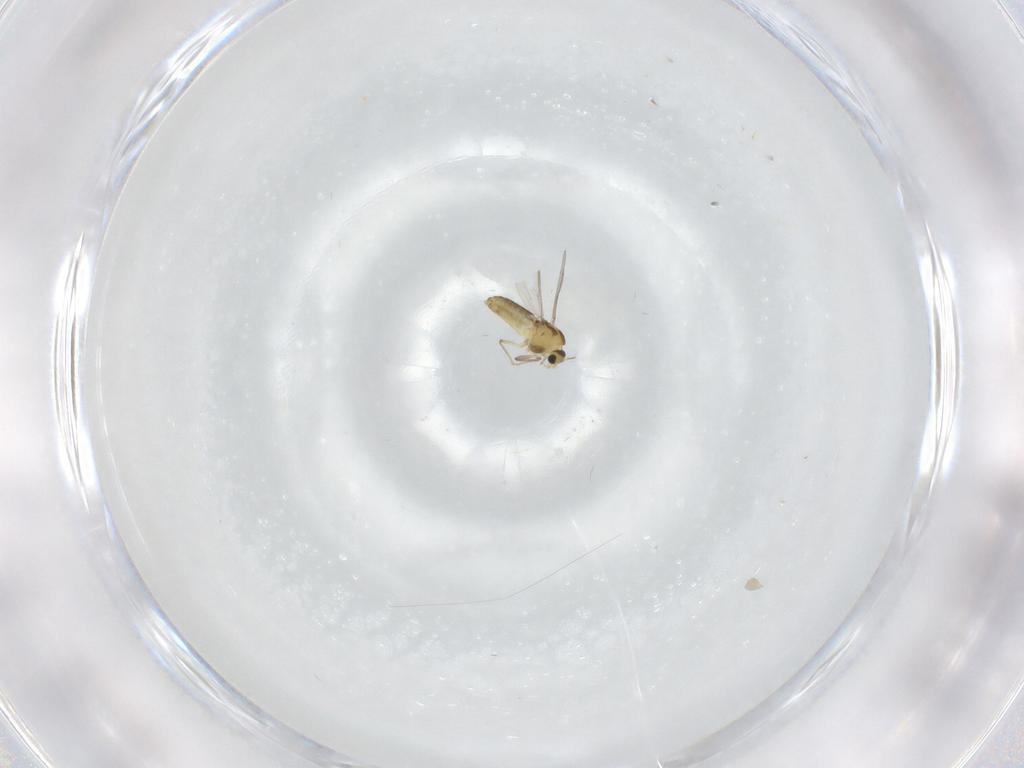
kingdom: Animalia
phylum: Arthropoda
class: Insecta
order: Diptera
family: Chironomidae
